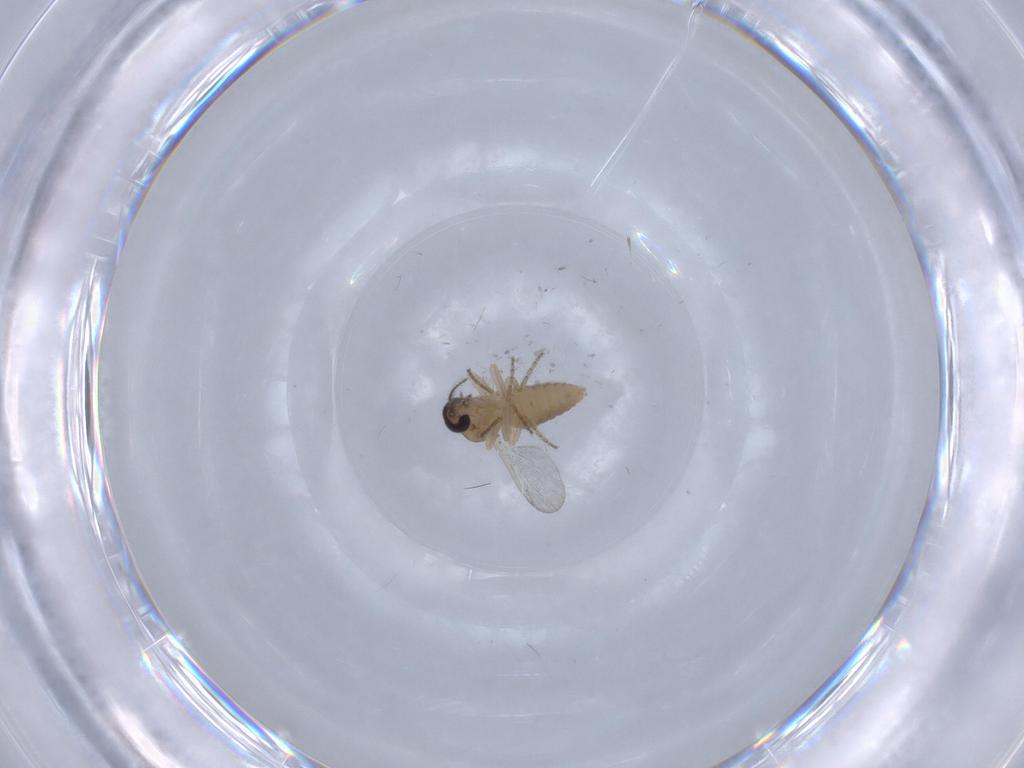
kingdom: Animalia
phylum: Arthropoda
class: Insecta
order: Diptera
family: Ceratopogonidae
